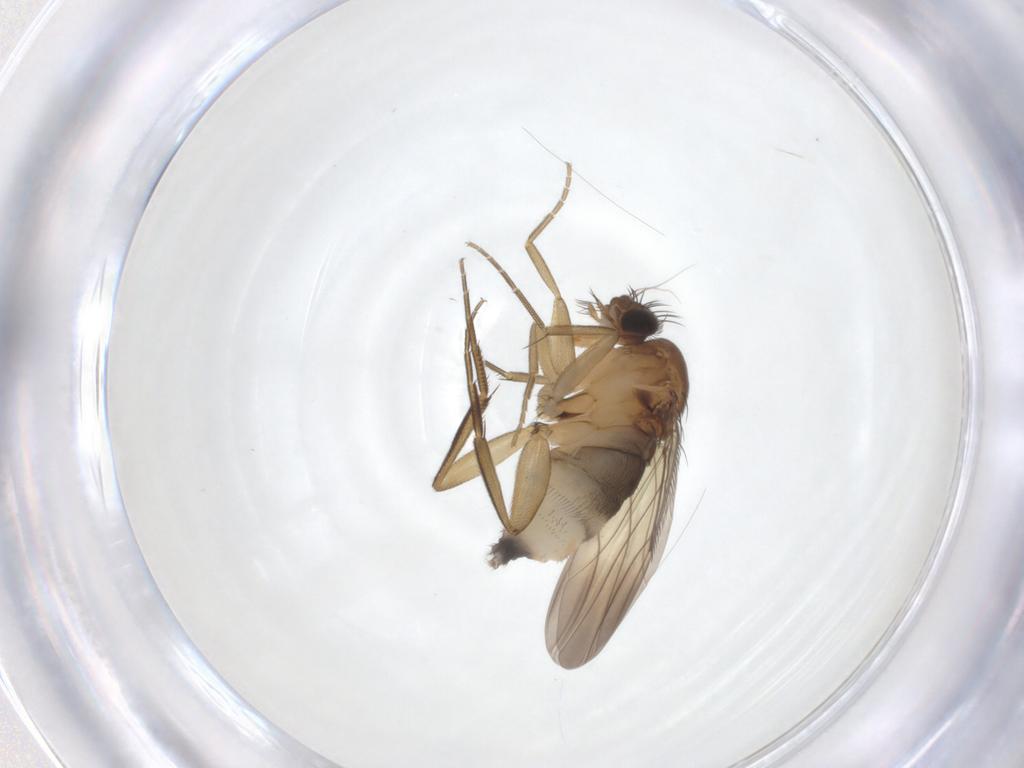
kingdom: Animalia
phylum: Arthropoda
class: Insecta
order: Diptera
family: Phoridae
